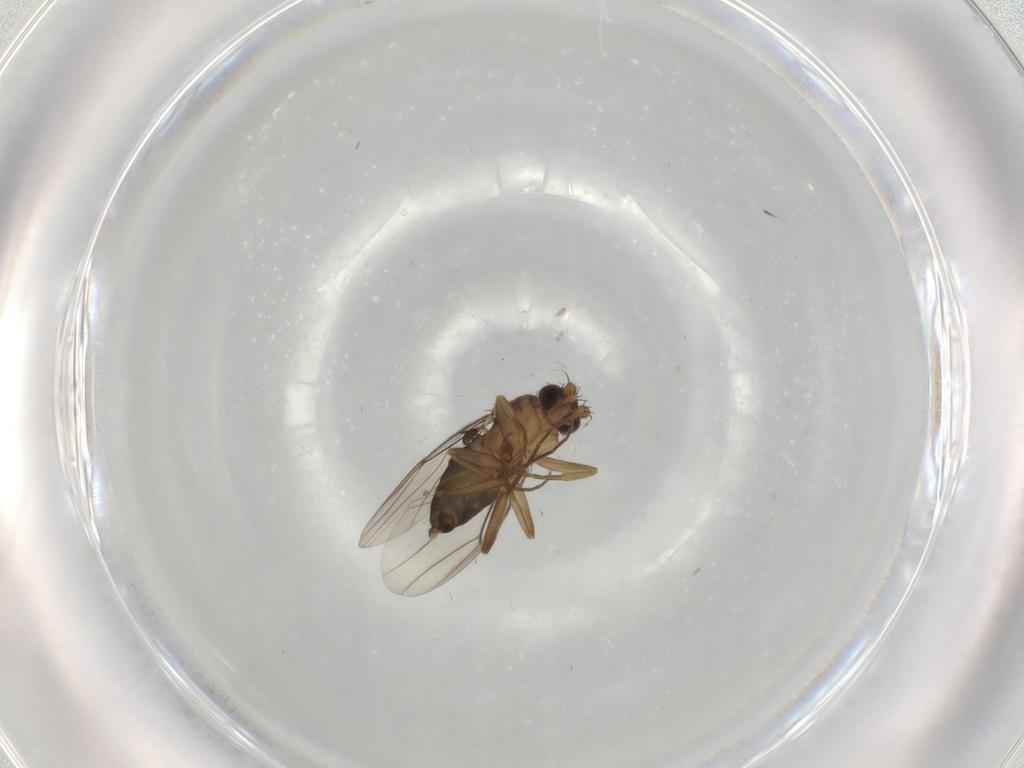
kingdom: Animalia
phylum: Arthropoda
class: Insecta
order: Diptera
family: Phoridae
